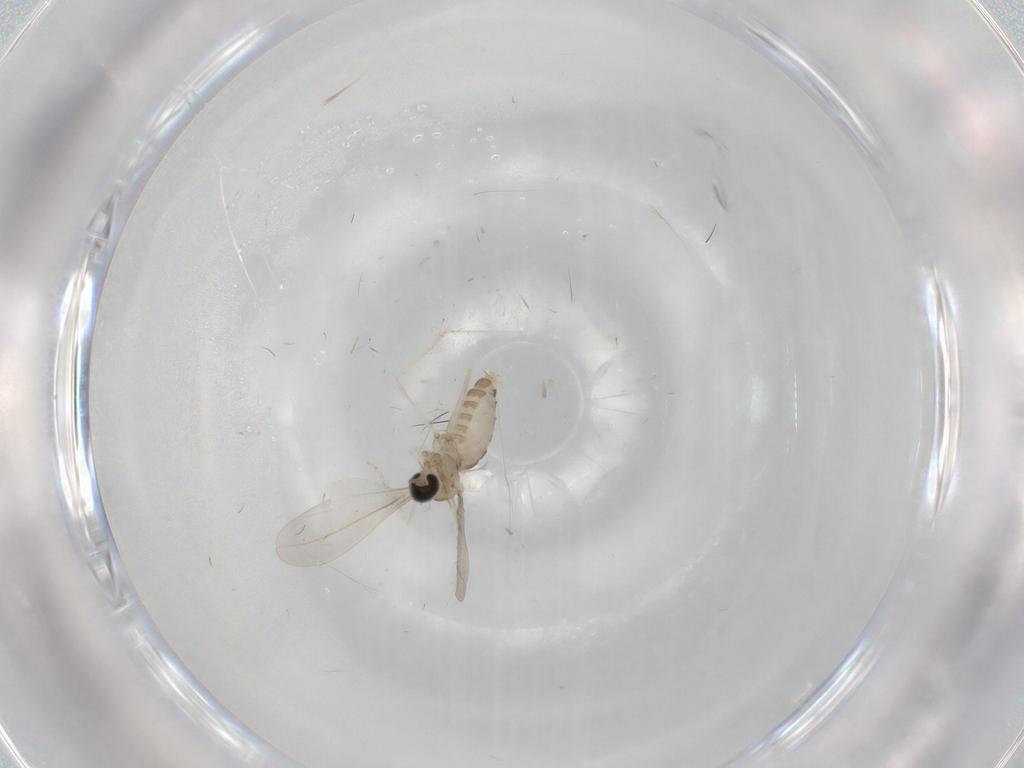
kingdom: Animalia
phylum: Arthropoda
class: Insecta
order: Diptera
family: Cecidomyiidae
